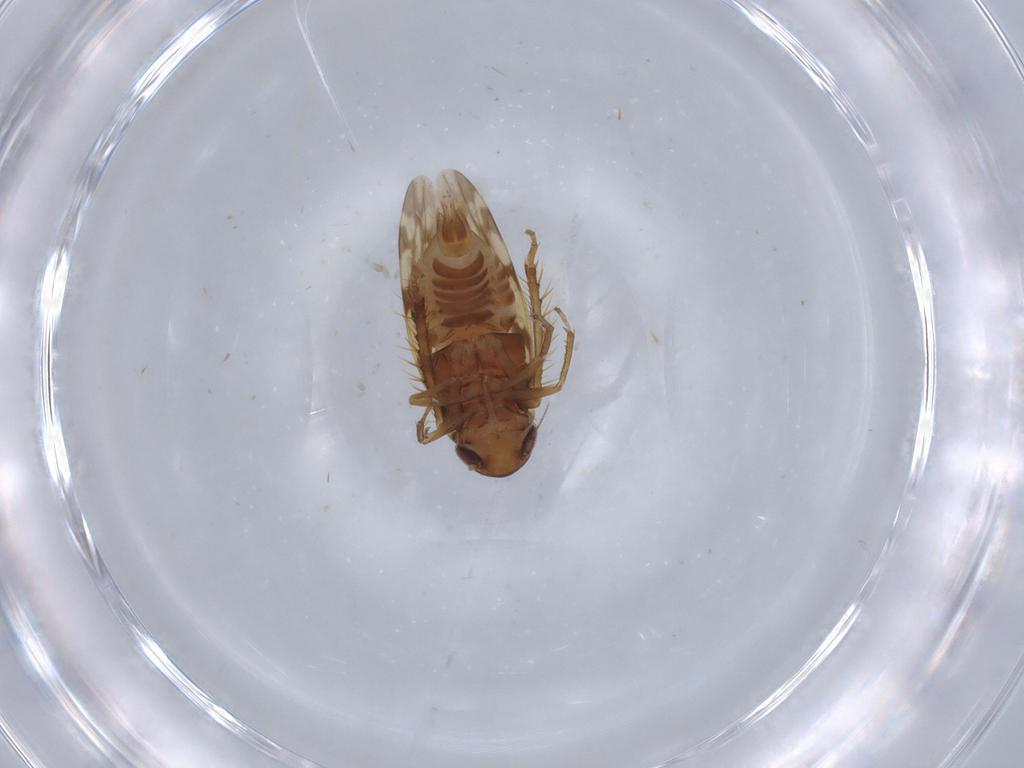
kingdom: Animalia
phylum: Arthropoda
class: Insecta
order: Hemiptera
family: Cicadellidae
